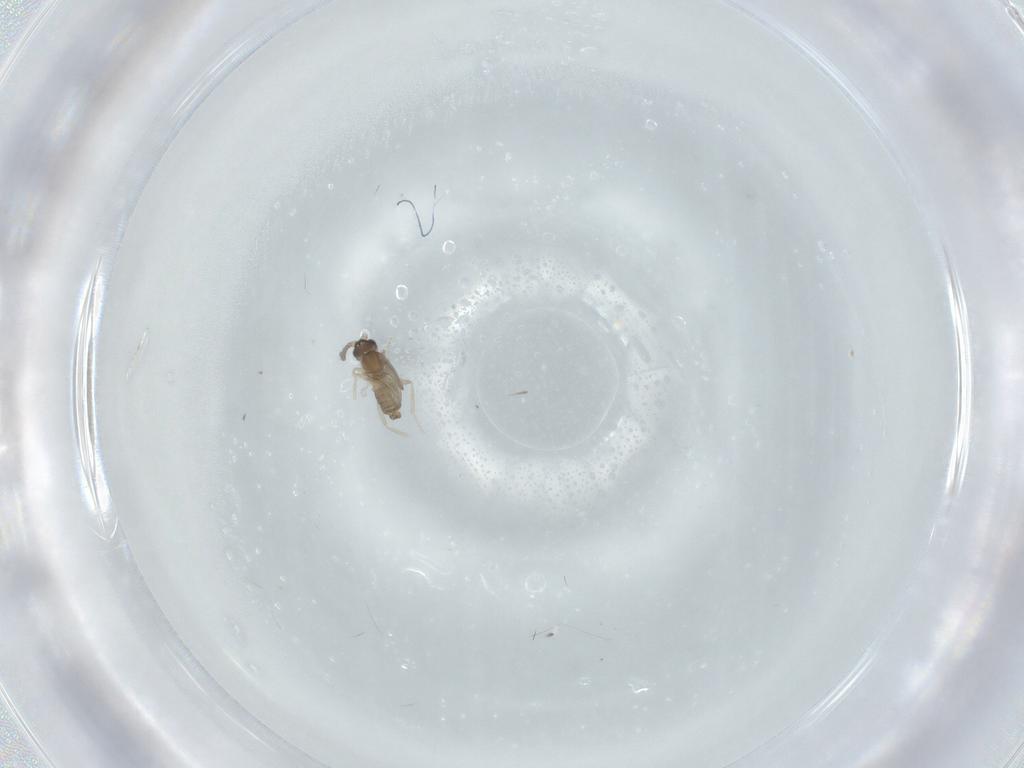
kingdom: Animalia
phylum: Arthropoda
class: Insecta
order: Diptera
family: Cecidomyiidae
